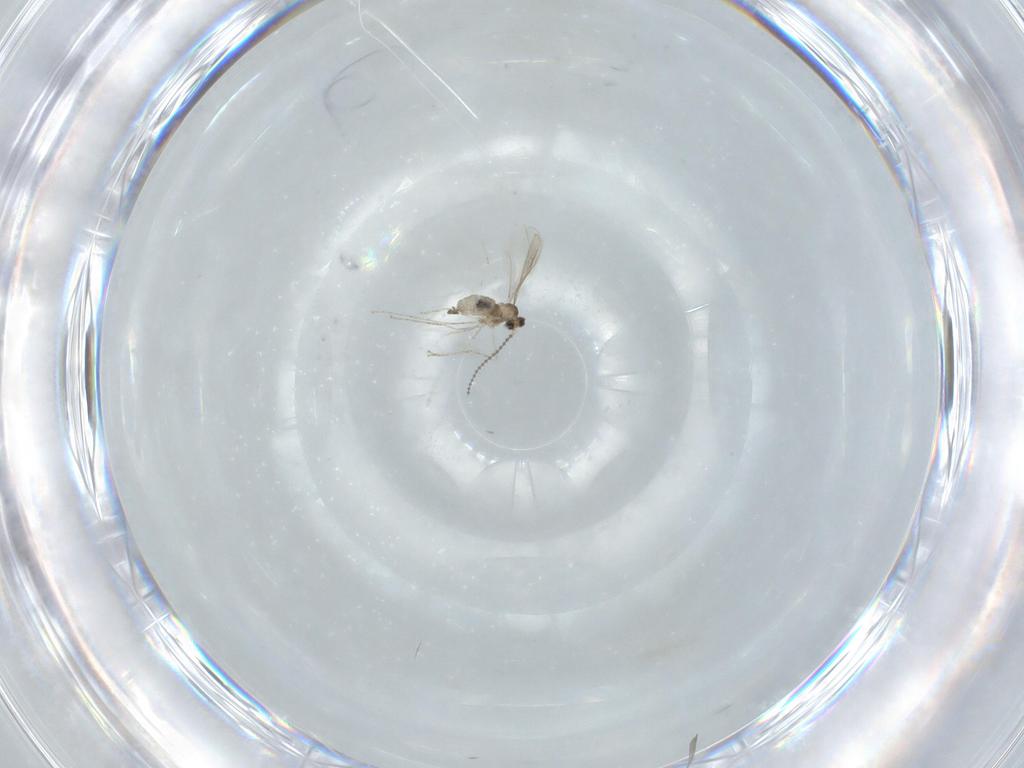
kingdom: Animalia
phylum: Arthropoda
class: Insecta
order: Diptera
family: Cecidomyiidae
